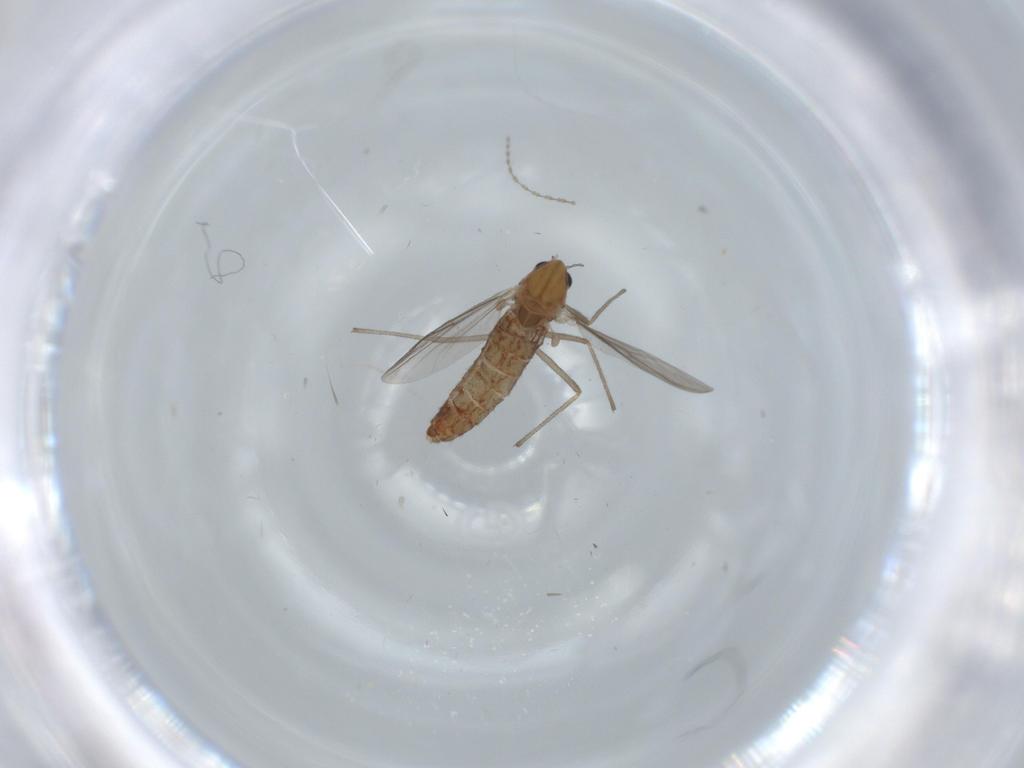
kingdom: Animalia
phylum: Arthropoda
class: Insecta
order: Diptera
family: Chironomidae
